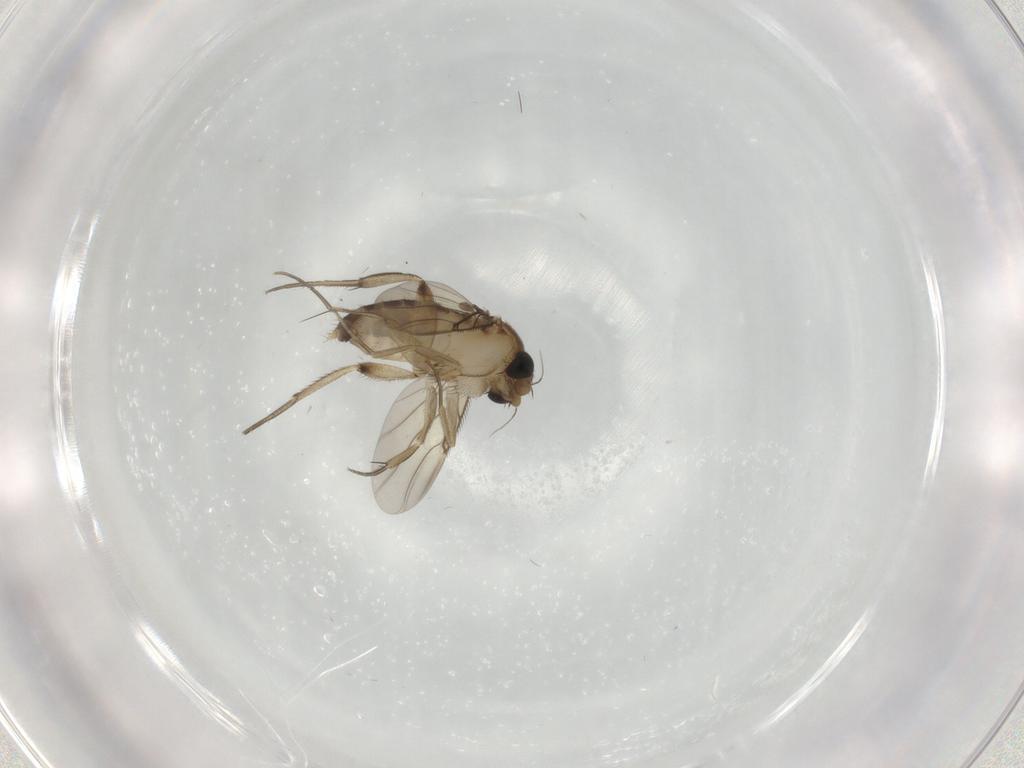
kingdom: Animalia
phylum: Arthropoda
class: Insecta
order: Diptera
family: Phoridae
